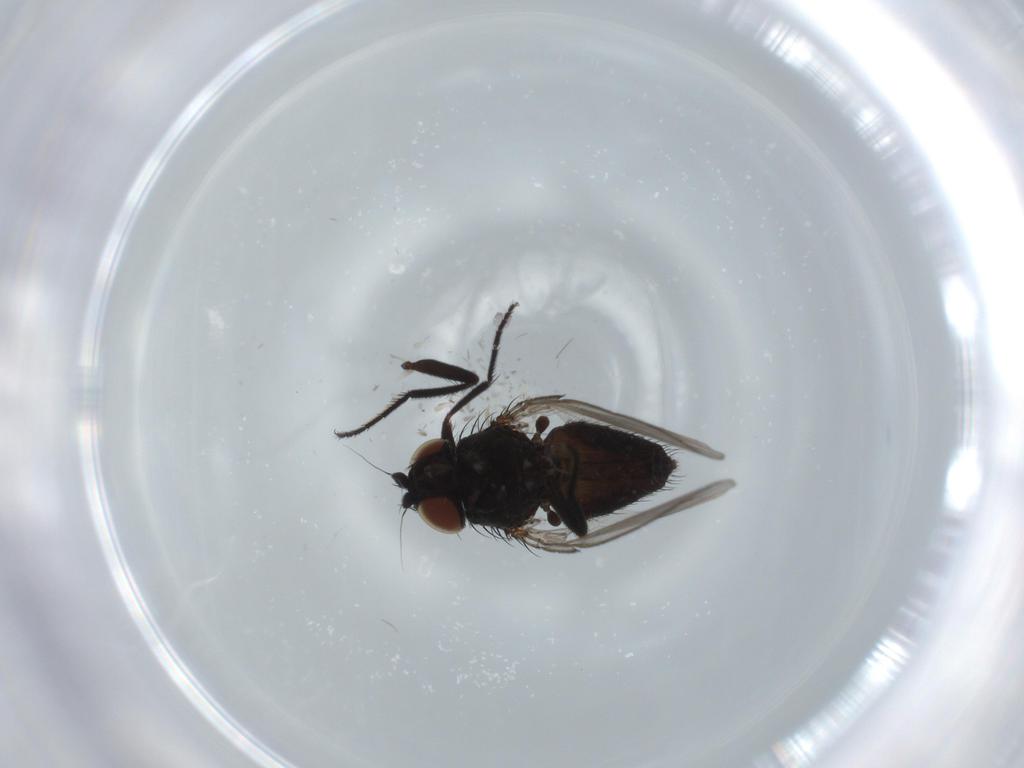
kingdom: Animalia
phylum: Arthropoda
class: Insecta
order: Diptera
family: Milichiidae
